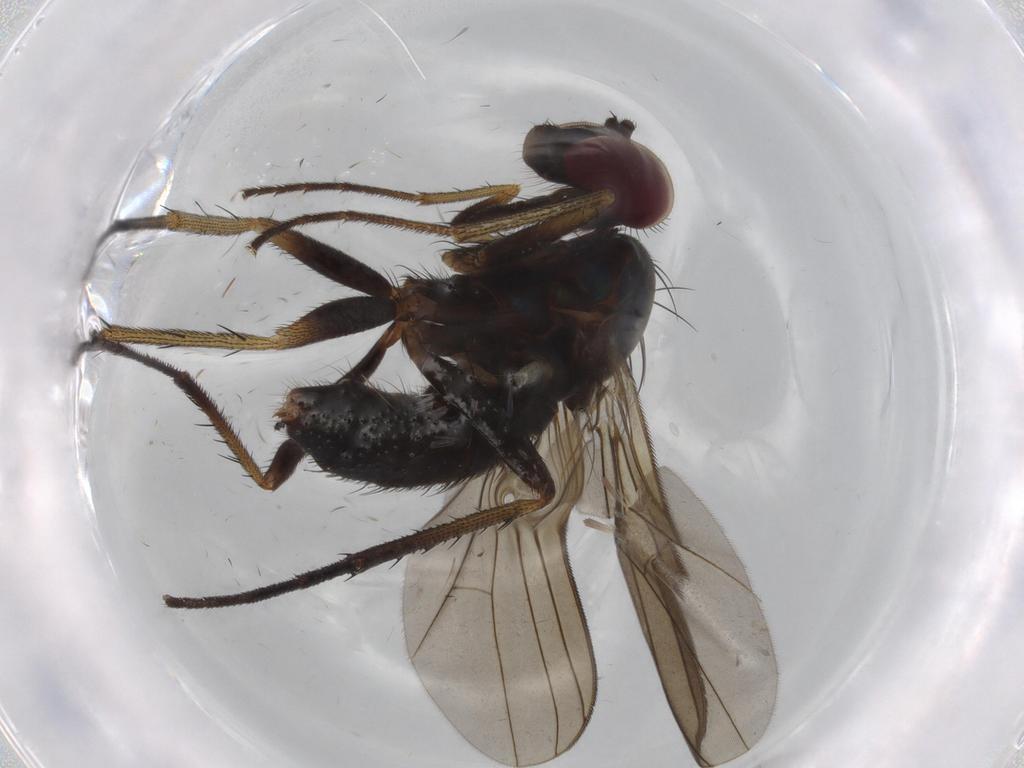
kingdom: Animalia
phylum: Arthropoda
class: Insecta
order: Diptera
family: Dolichopodidae
